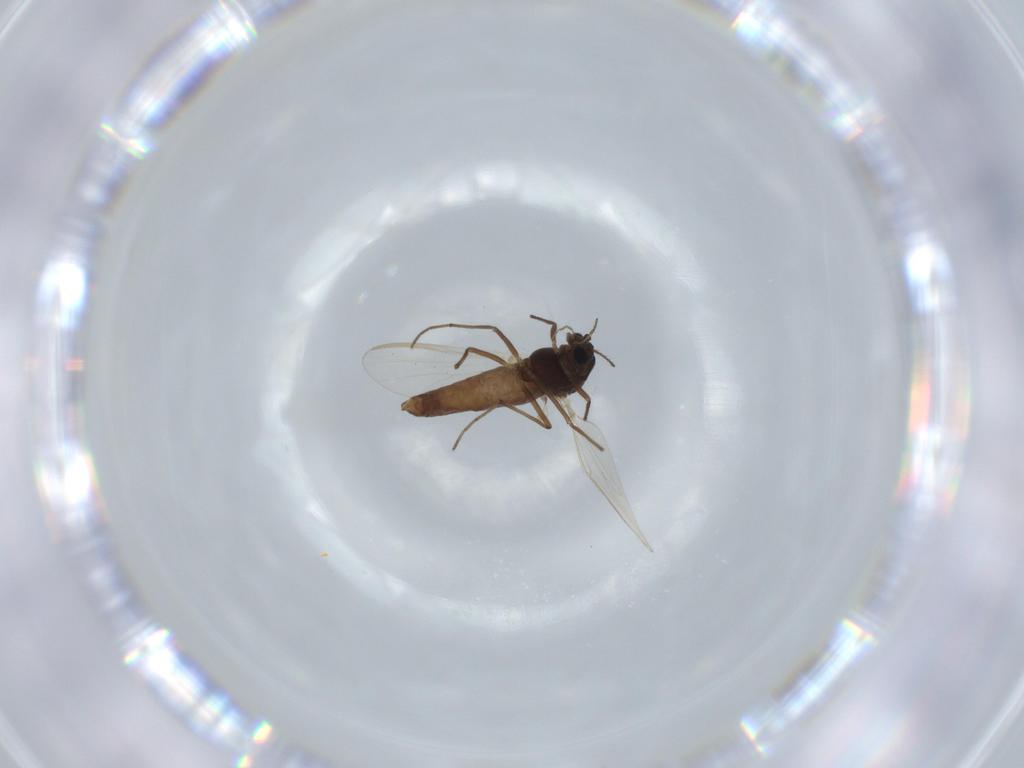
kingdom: Animalia
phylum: Arthropoda
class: Insecta
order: Diptera
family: Chironomidae
